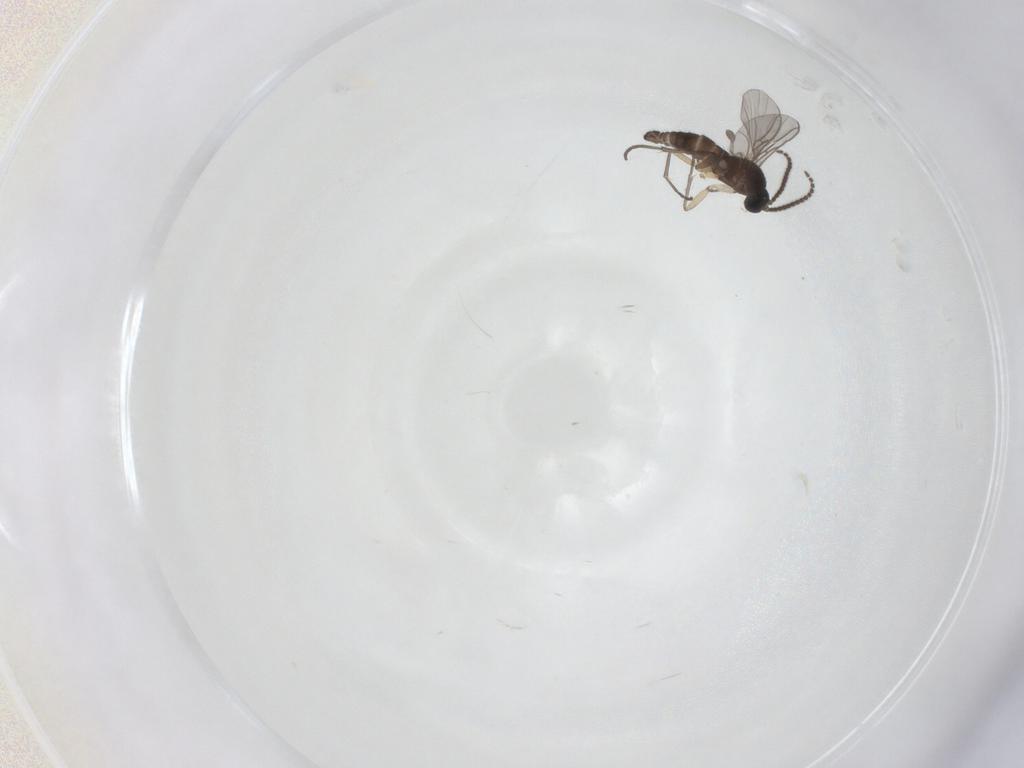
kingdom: Animalia
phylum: Arthropoda
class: Insecta
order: Diptera
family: Sciaridae
